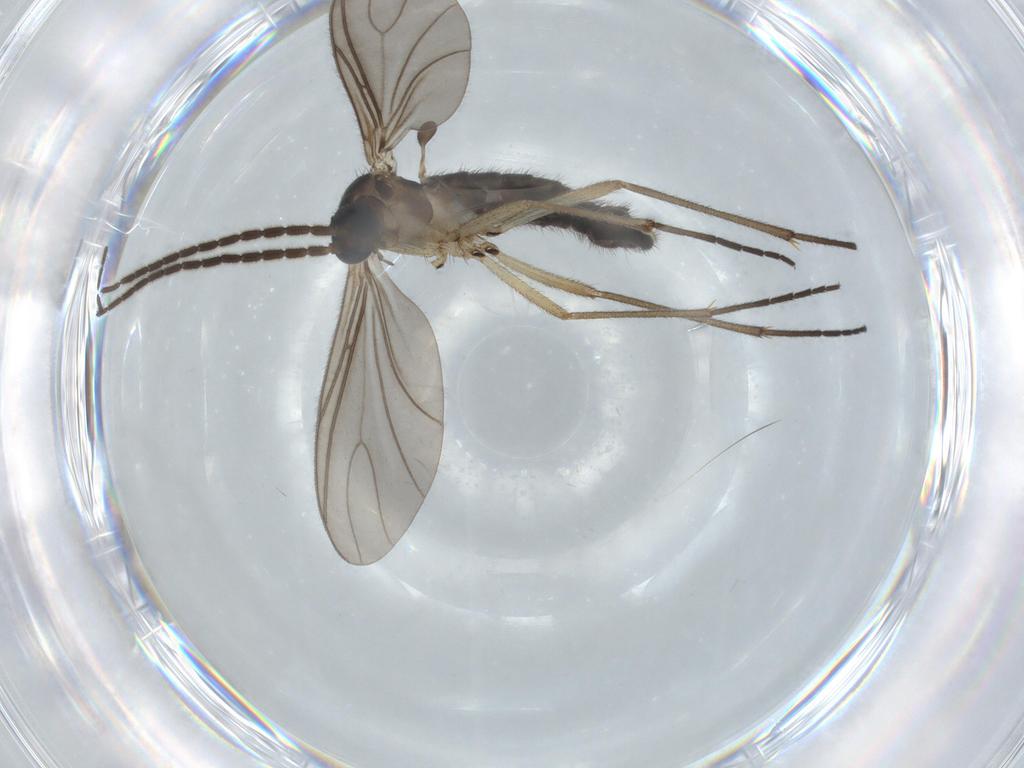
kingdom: Animalia
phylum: Arthropoda
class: Insecta
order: Diptera
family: Sciaridae
